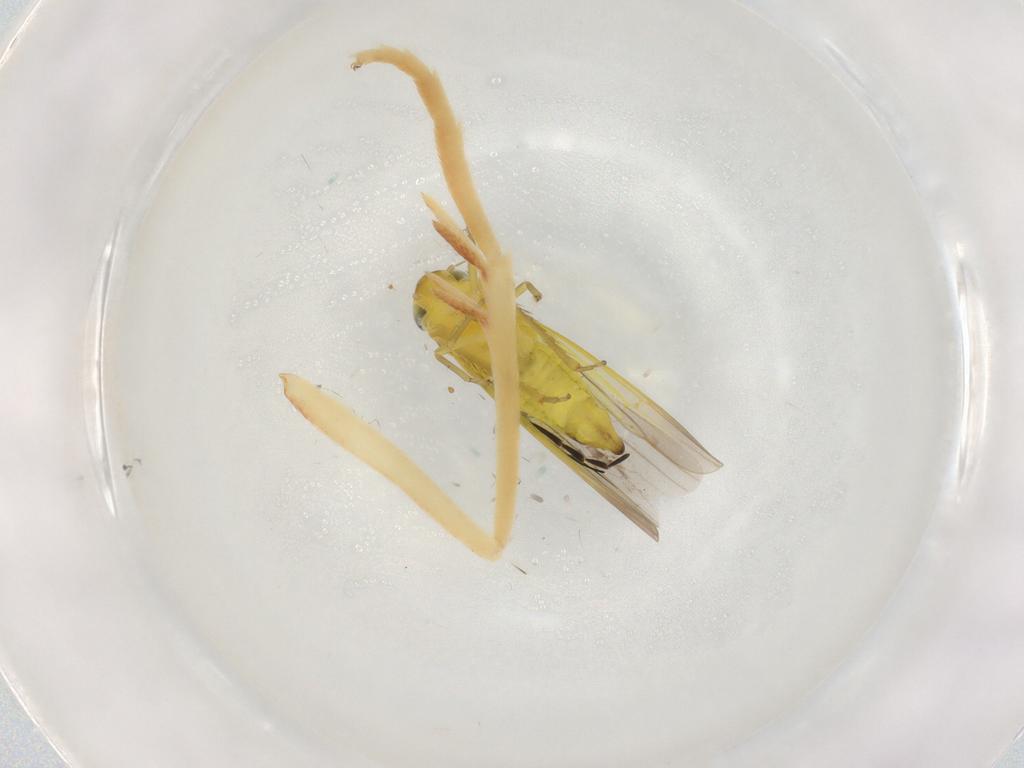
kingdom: Animalia
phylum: Arthropoda
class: Insecta
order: Hemiptera
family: Cicadellidae
